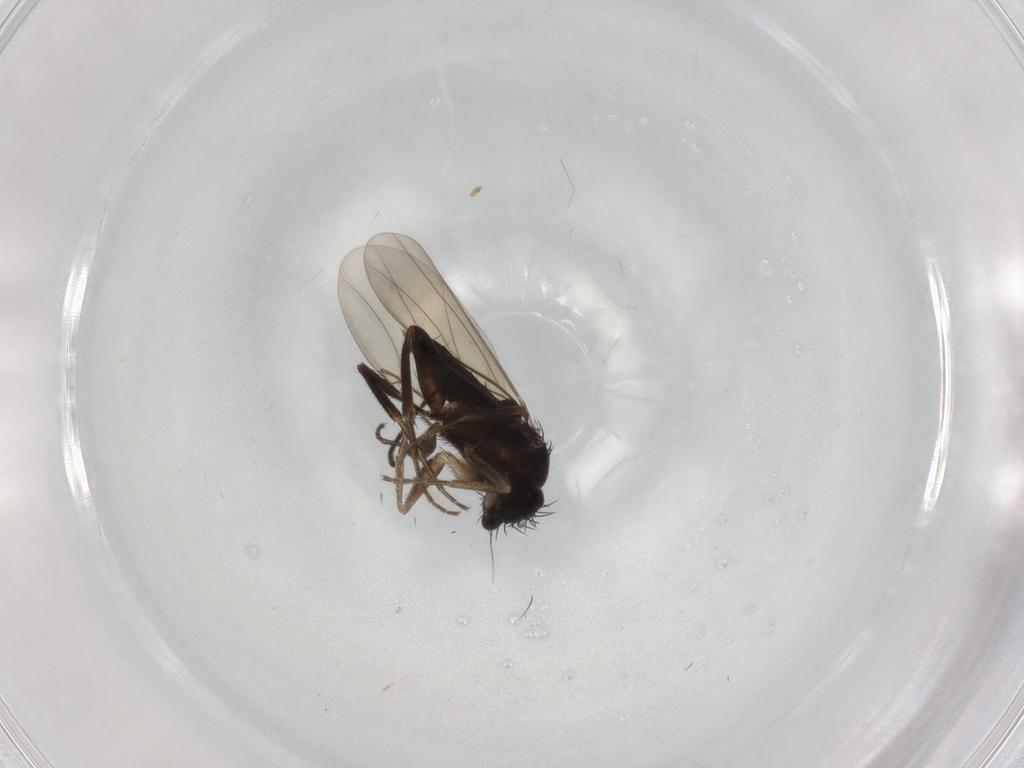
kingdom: Animalia
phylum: Arthropoda
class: Insecta
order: Diptera
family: Phoridae
